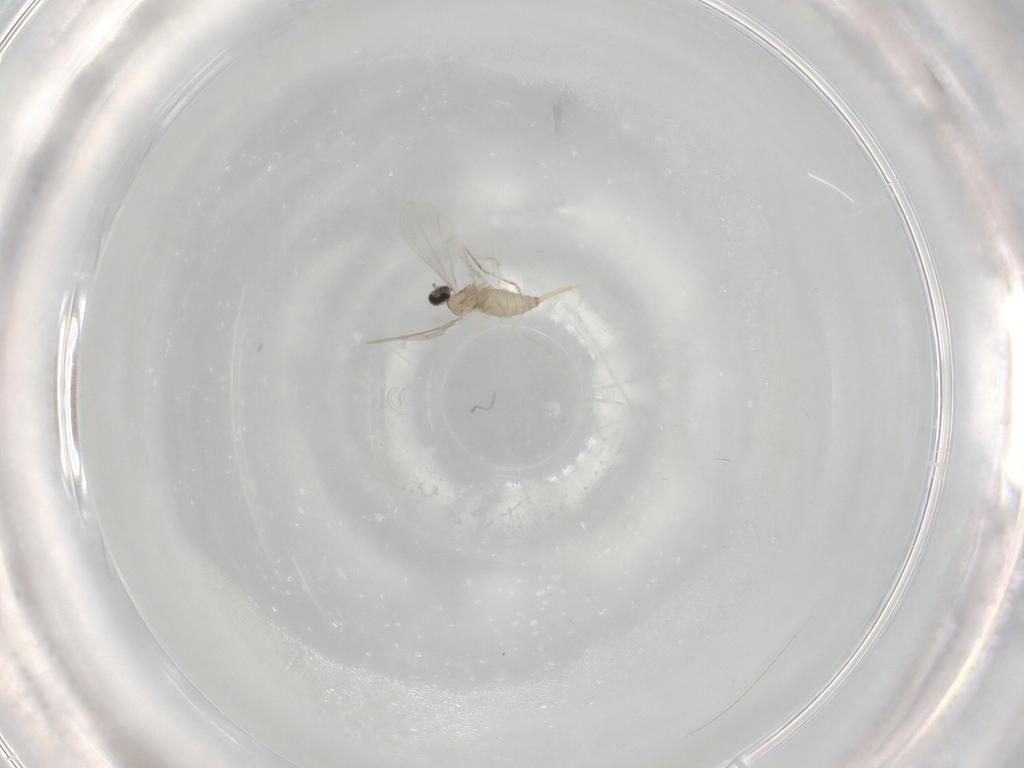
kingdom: Animalia
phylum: Arthropoda
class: Insecta
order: Diptera
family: Cecidomyiidae
